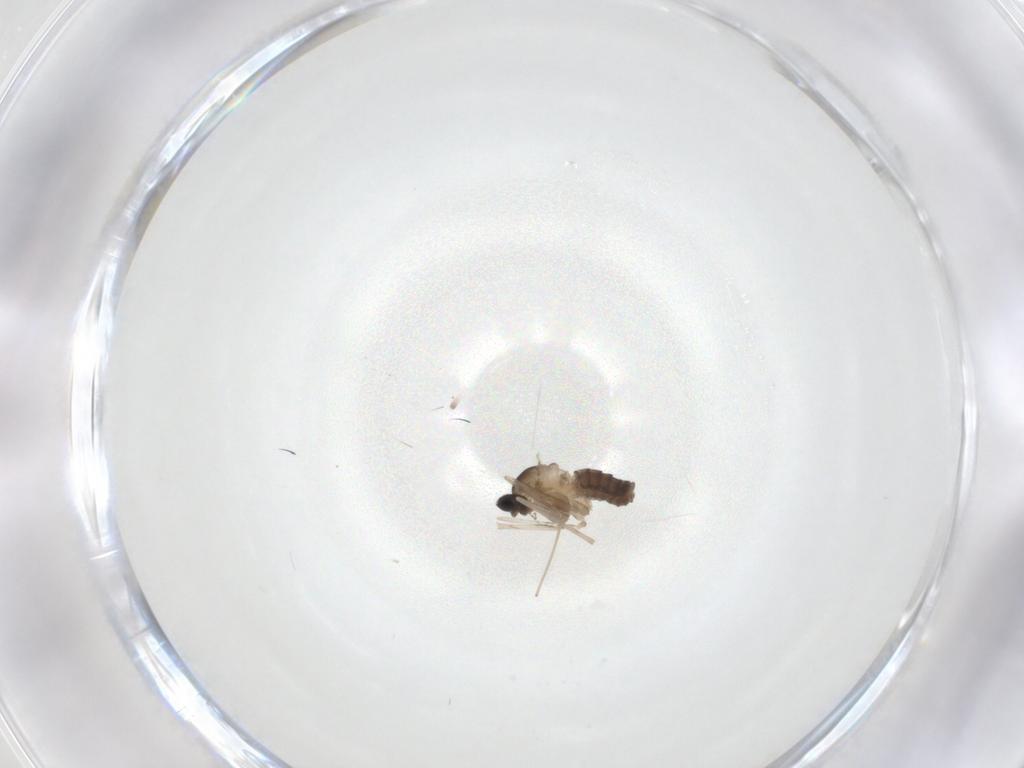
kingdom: Animalia
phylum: Arthropoda
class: Insecta
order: Diptera
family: Cecidomyiidae
